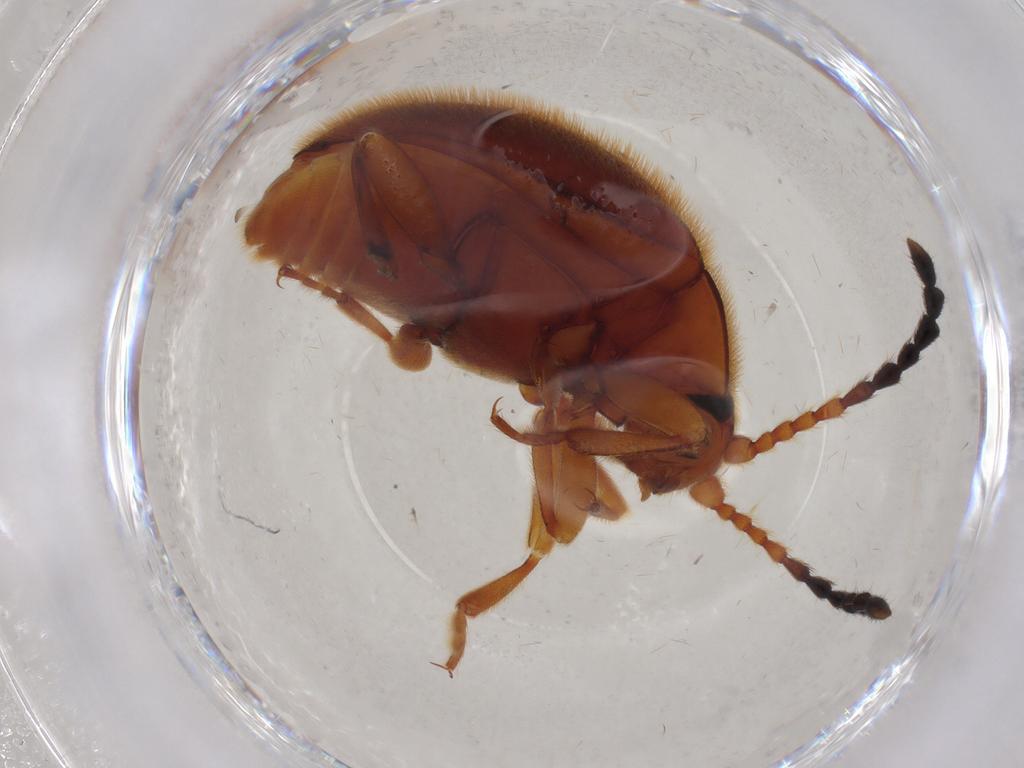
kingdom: Animalia
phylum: Arthropoda
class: Insecta
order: Coleoptera
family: Endomychidae
